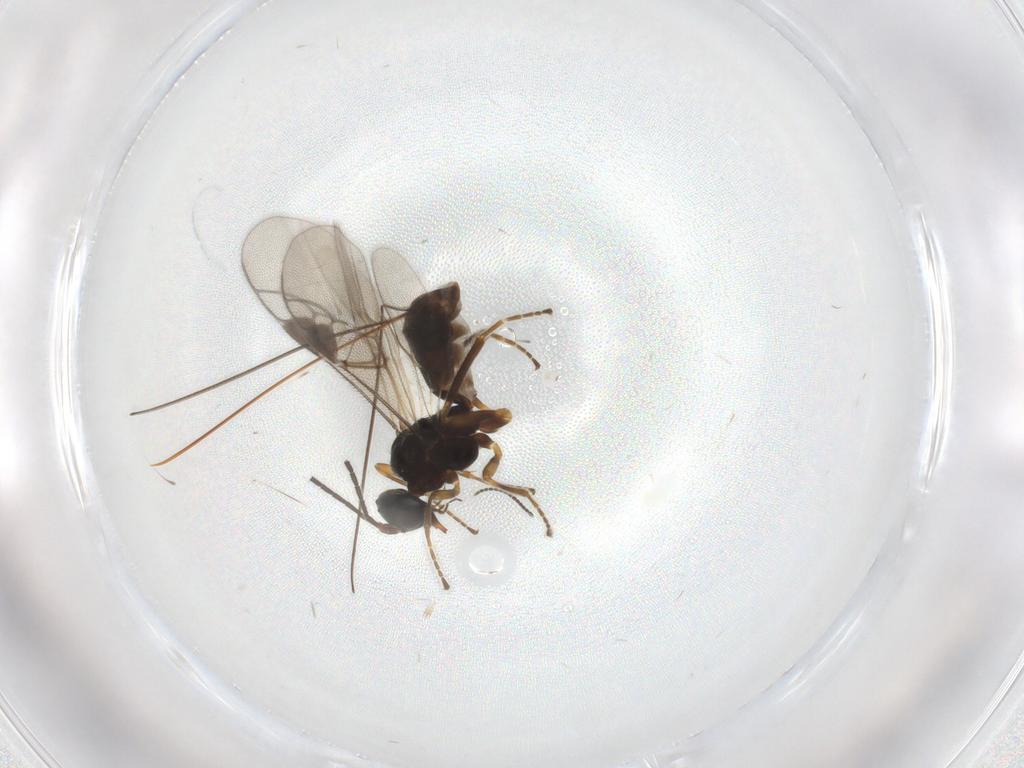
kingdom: Animalia
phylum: Arthropoda
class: Insecta
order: Hymenoptera
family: Braconidae
